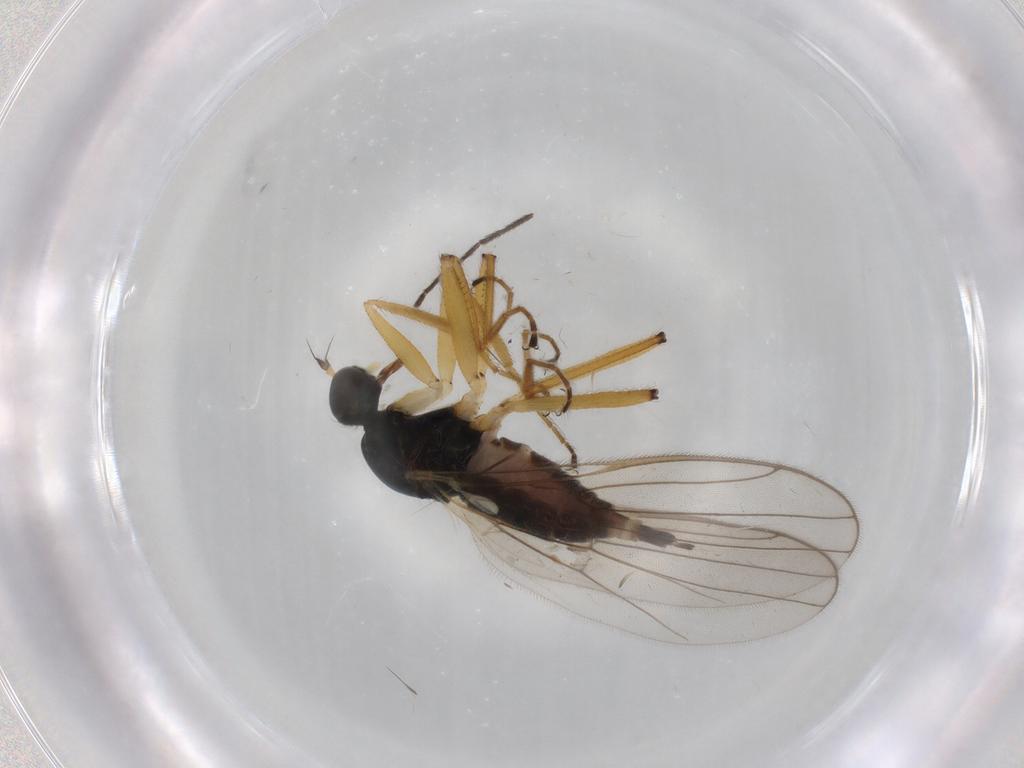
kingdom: Animalia
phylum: Arthropoda
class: Insecta
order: Diptera
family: Hybotidae
